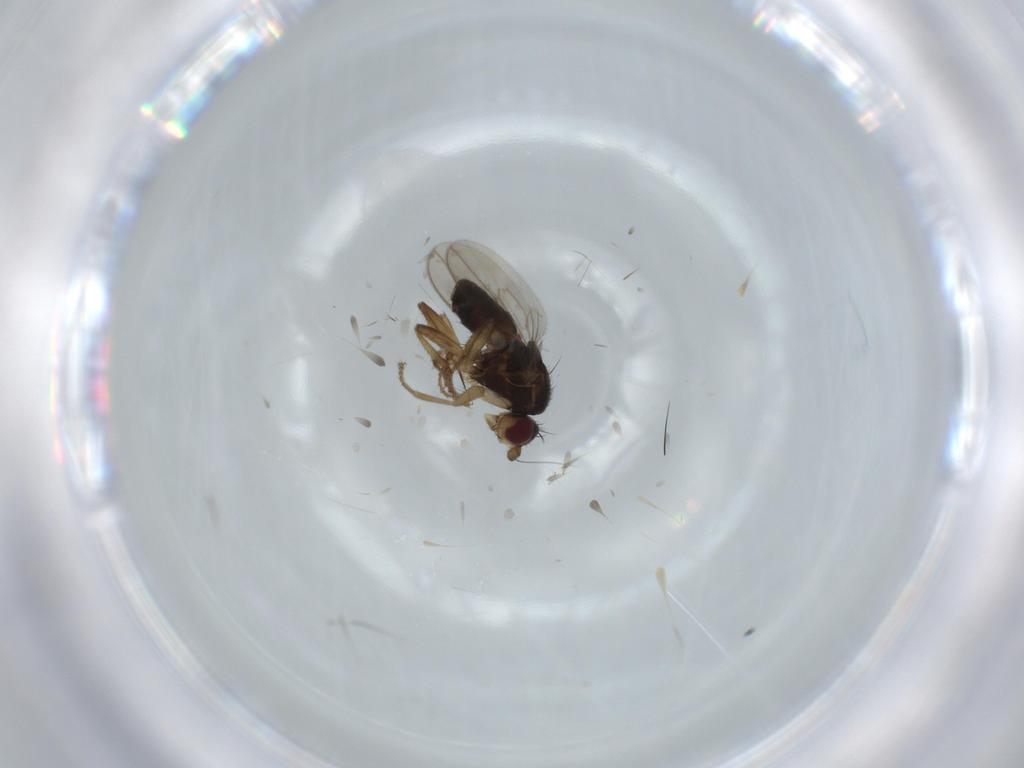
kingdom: Animalia
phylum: Arthropoda
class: Insecta
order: Diptera
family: Sphaeroceridae
